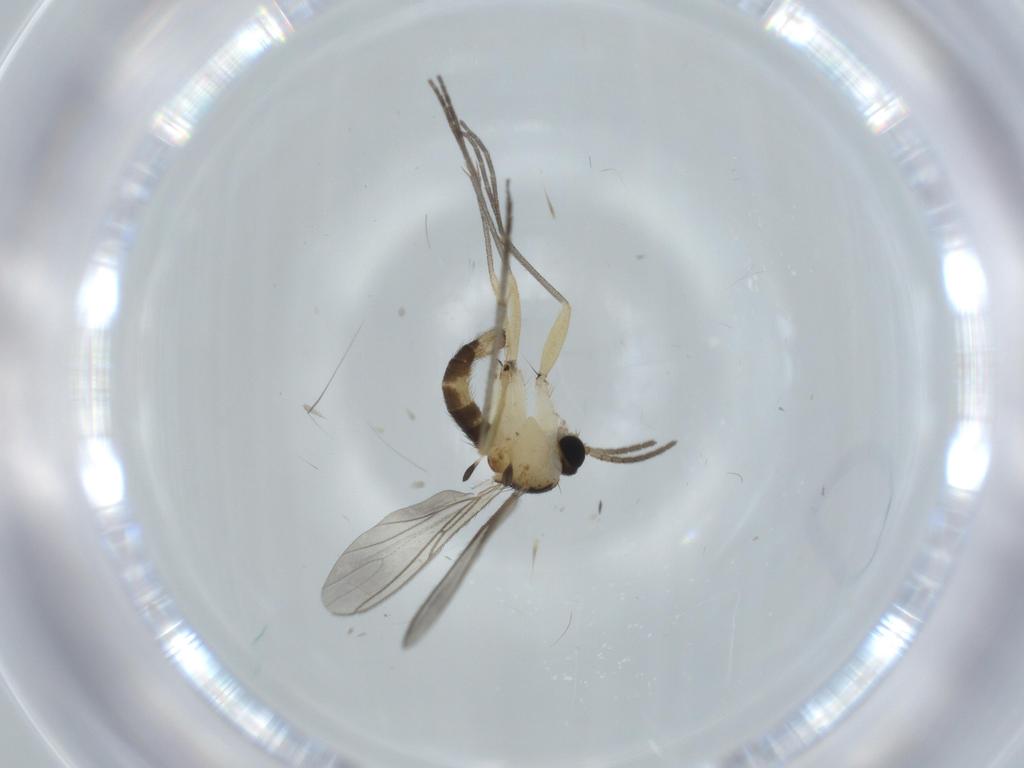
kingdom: Animalia
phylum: Arthropoda
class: Insecta
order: Diptera
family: Sciaridae
